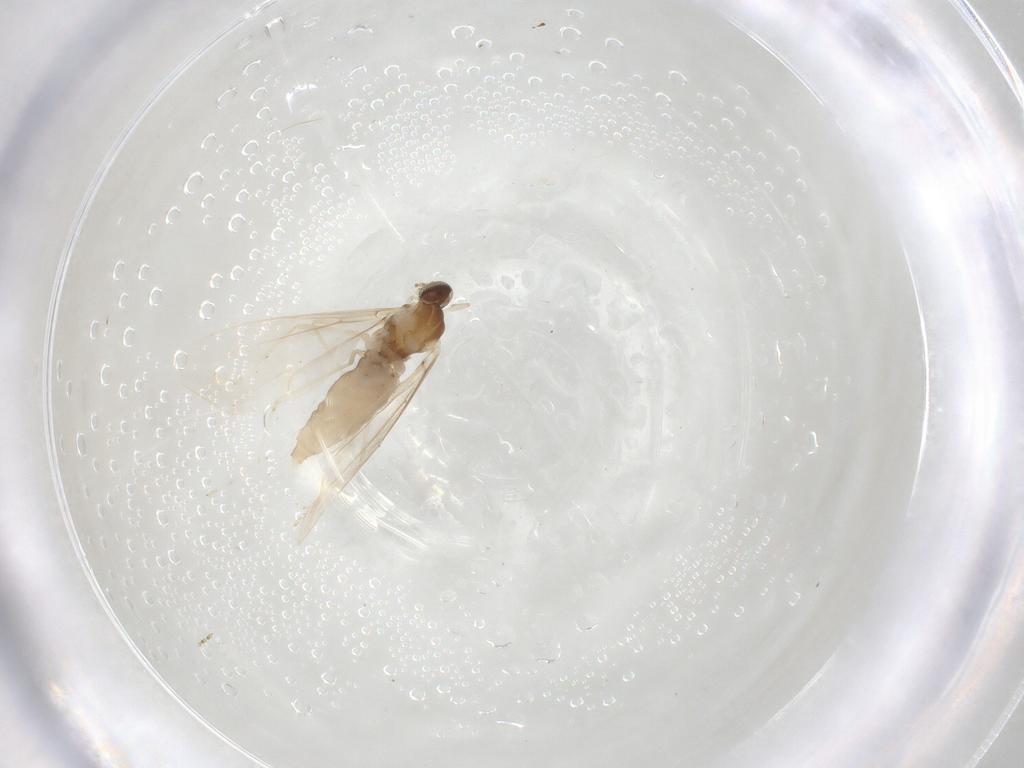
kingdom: Animalia
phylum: Arthropoda
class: Insecta
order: Diptera
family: Cecidomyiidae
